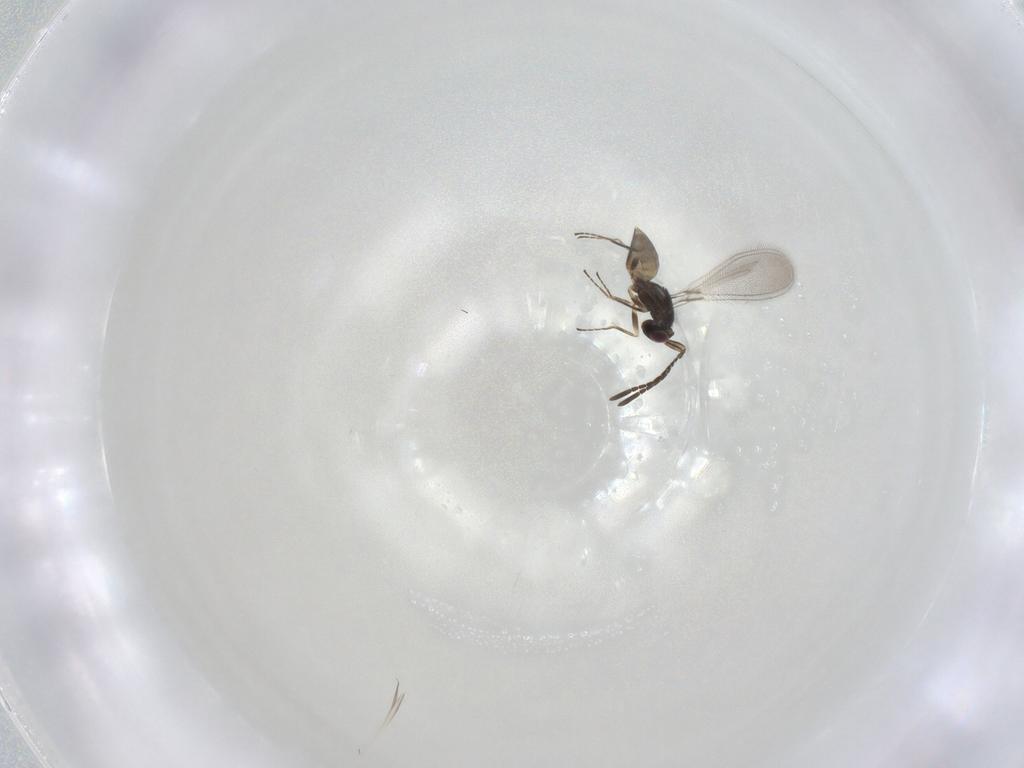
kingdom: Animalia
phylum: Arthropoda
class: Insecta
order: Hymenoptera
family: Mymaridae
